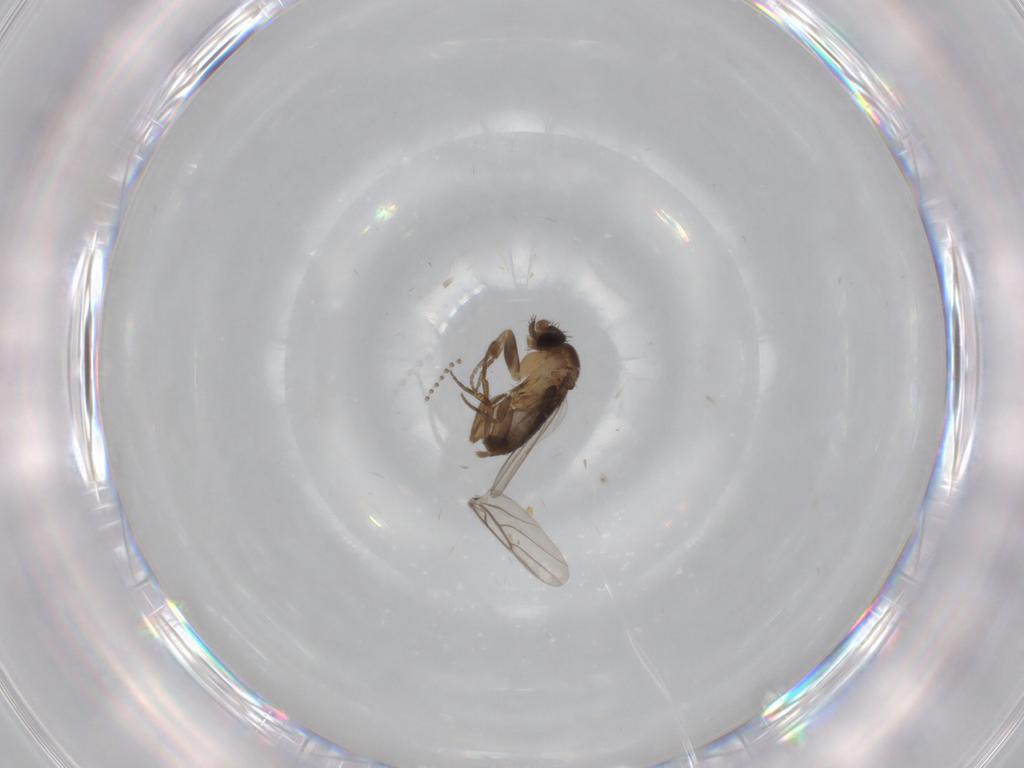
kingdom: Animalia
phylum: Arthropoda
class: Insecta
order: Diptera
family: Phoridae
